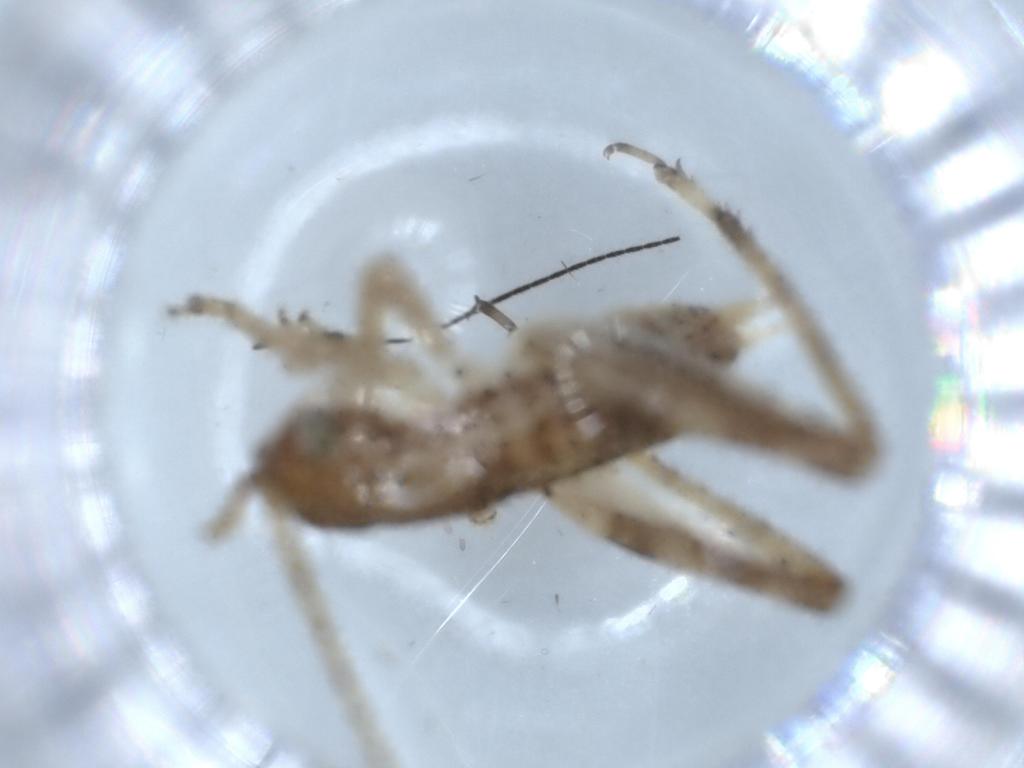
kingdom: Animalia
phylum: Arthropoda
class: Insecta
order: Orthoptera
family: Gryllidae
